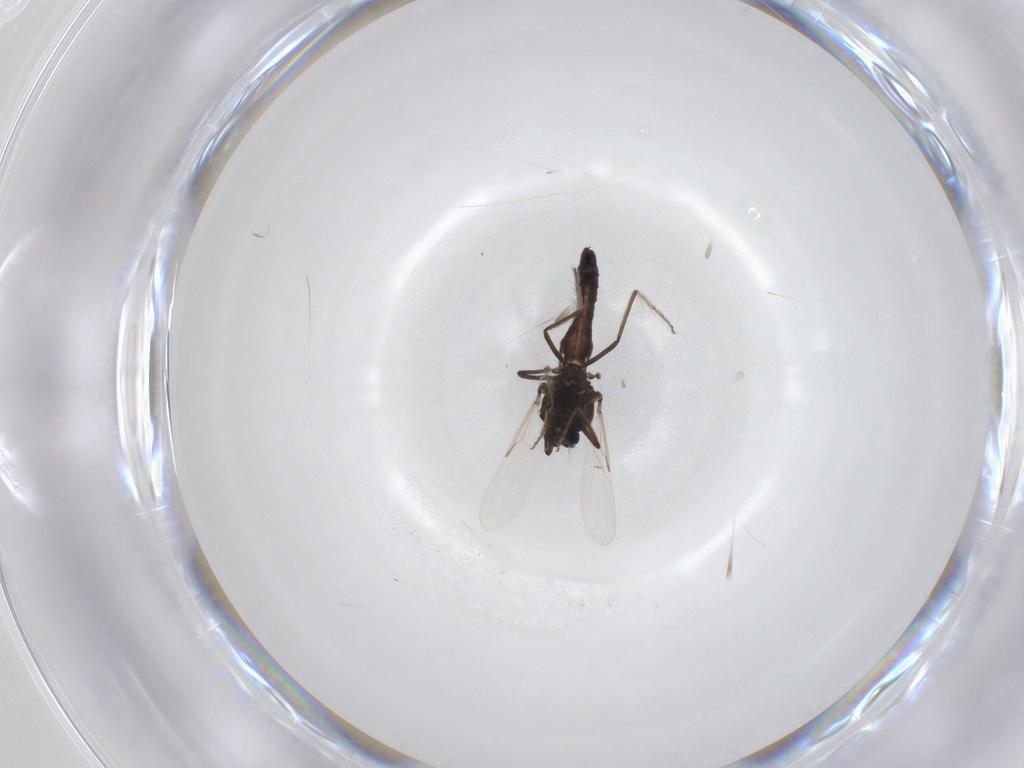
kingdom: Animalia
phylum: Arthropoda
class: Insecta
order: Diptera
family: Ceratopogonidae
